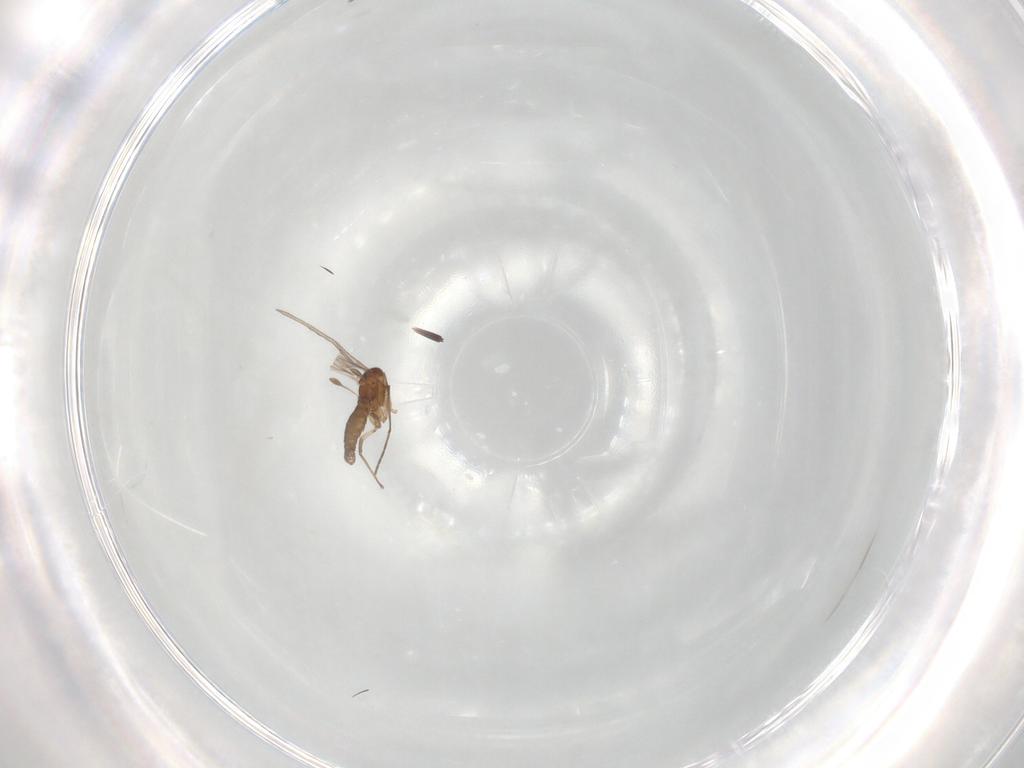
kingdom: Animalia
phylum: Arthropoda
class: Insecta
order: Diptera
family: Sciaridae
